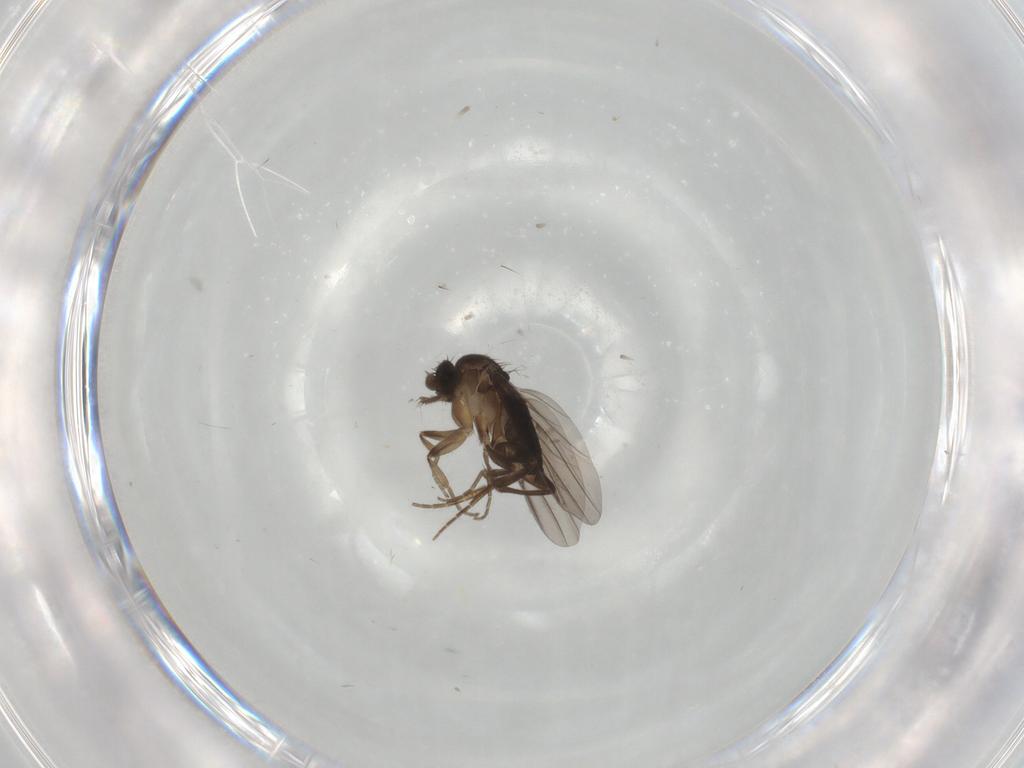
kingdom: Animalia
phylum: Arthropoda
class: Insecta
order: Diptera
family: Phoridae
